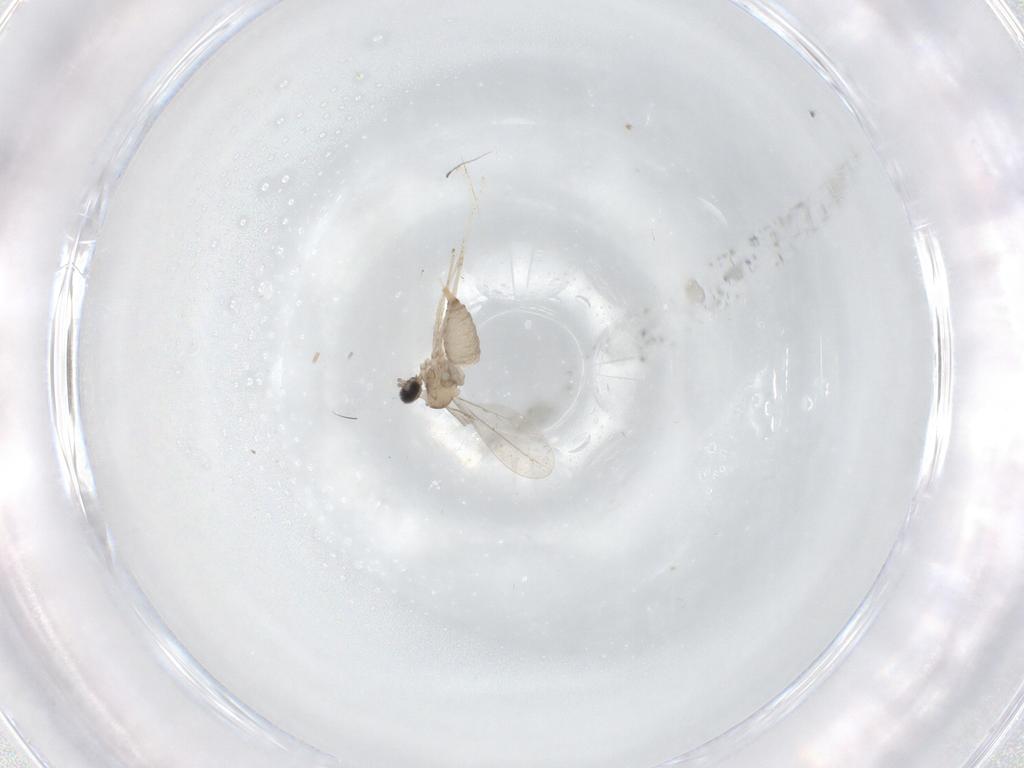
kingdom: Animalia
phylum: Arthropoda
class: Insecta
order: Diptera
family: Cecidomyiidae
